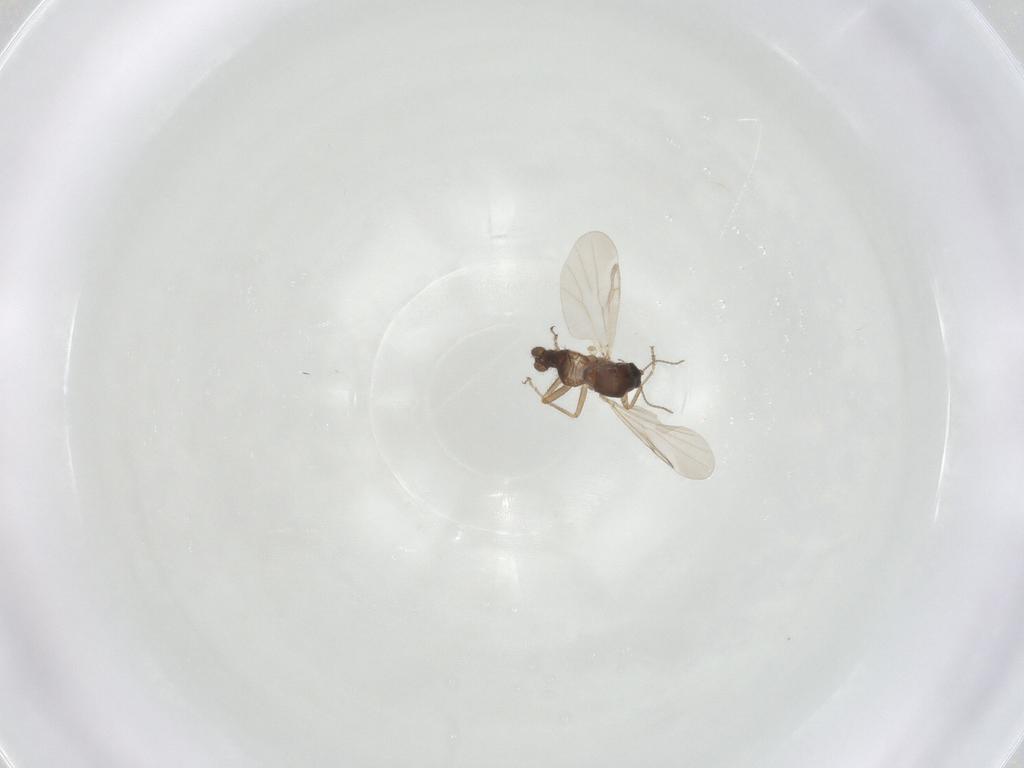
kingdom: Animalia
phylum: Arthropoda
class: Insecta
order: Diptera
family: Ceratopogonidae
